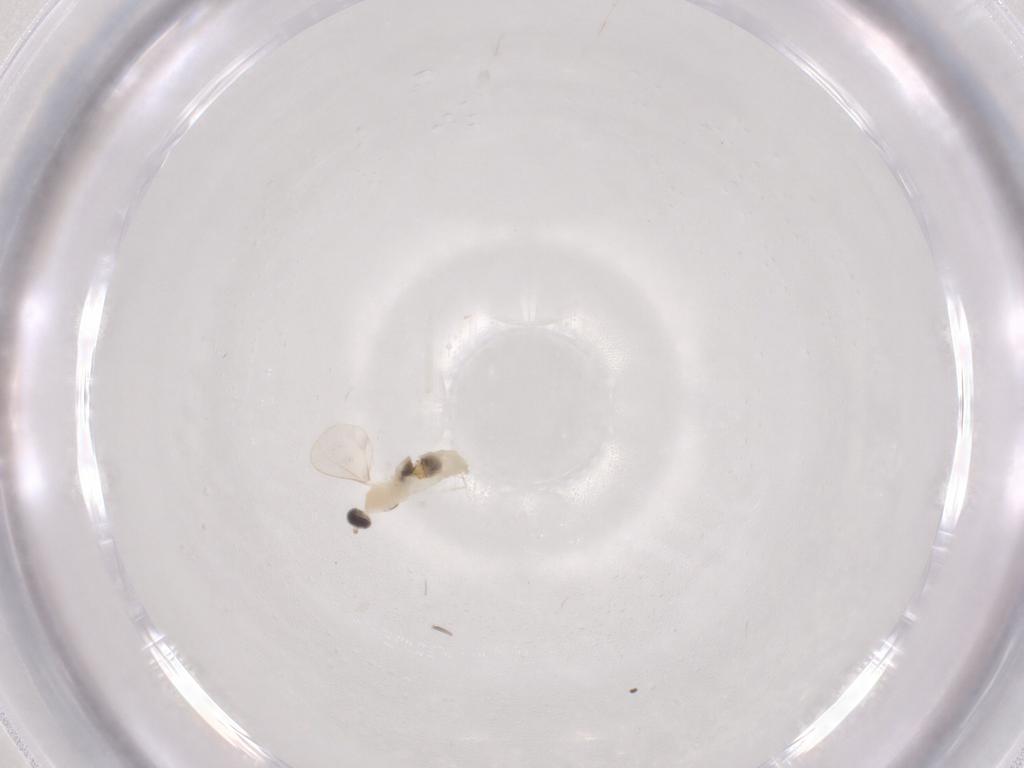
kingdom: Animalia
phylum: Arthropoda
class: Insecta
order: Diptera
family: Cecidomyiidae
